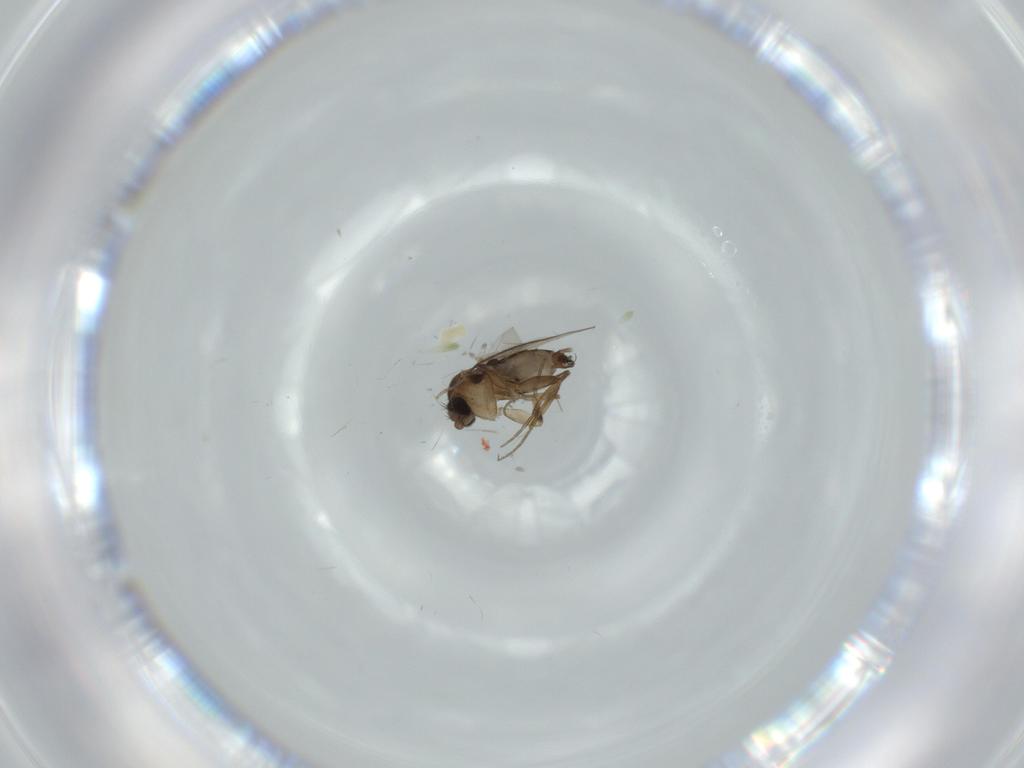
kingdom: Animalia
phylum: Arthropoda
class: Insecta
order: Diptera
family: Phoridae
